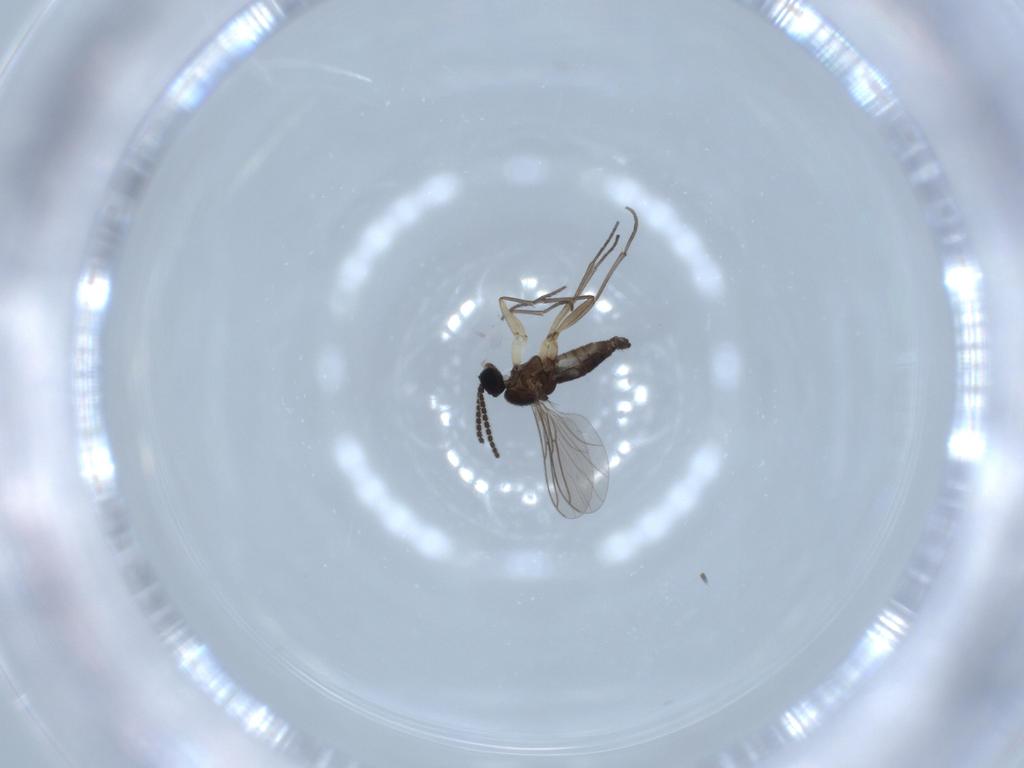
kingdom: Animalia
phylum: Arthropoda
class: Insecta
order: Diptera
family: Sciaridae
